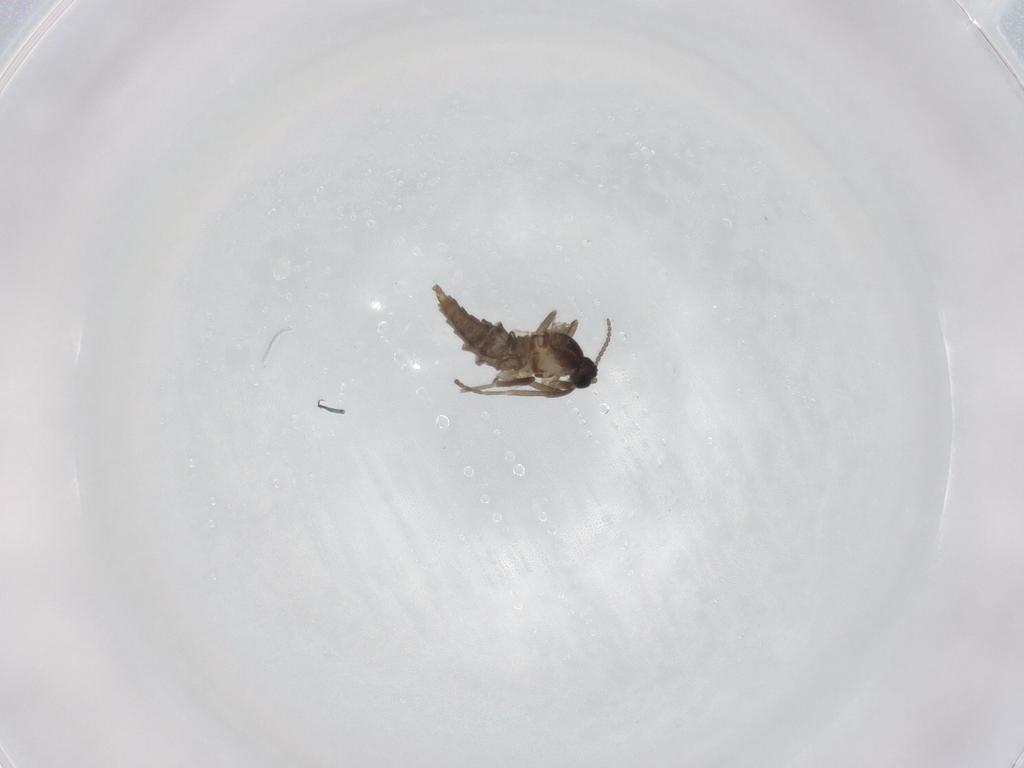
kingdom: Animalia
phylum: Arthropoda
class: Insecta
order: Diptera
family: Cecidomyiidae
